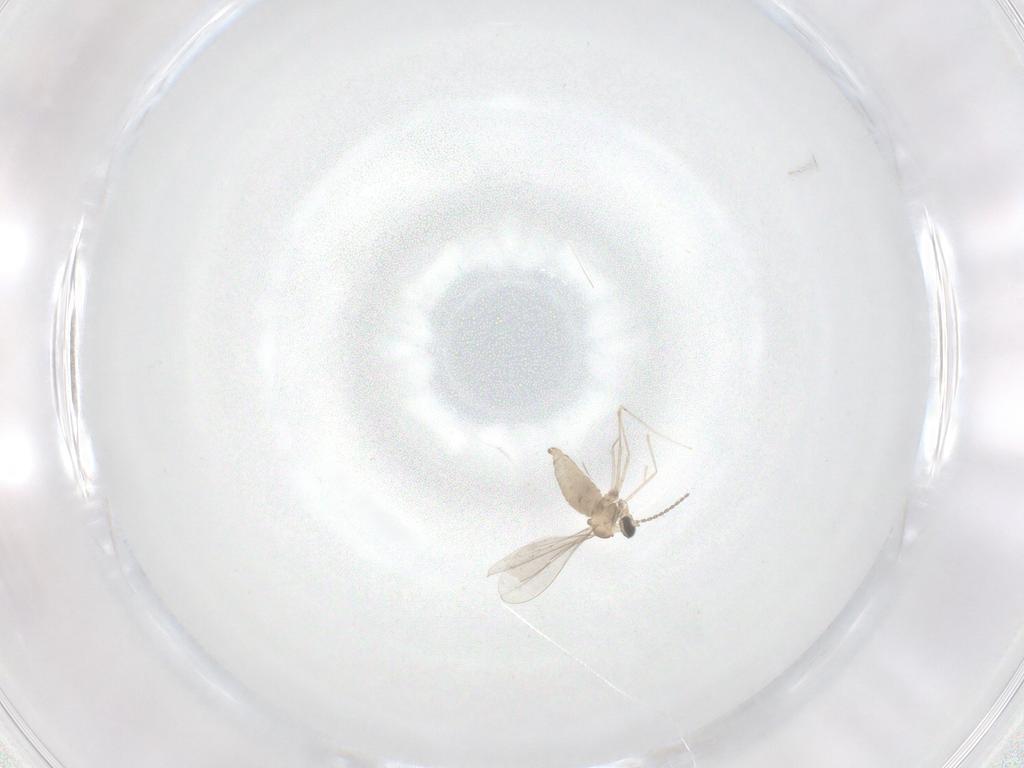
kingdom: Animalia
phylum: Arthropoda
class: Insecta
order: Diptera
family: Cecidomyiidae
